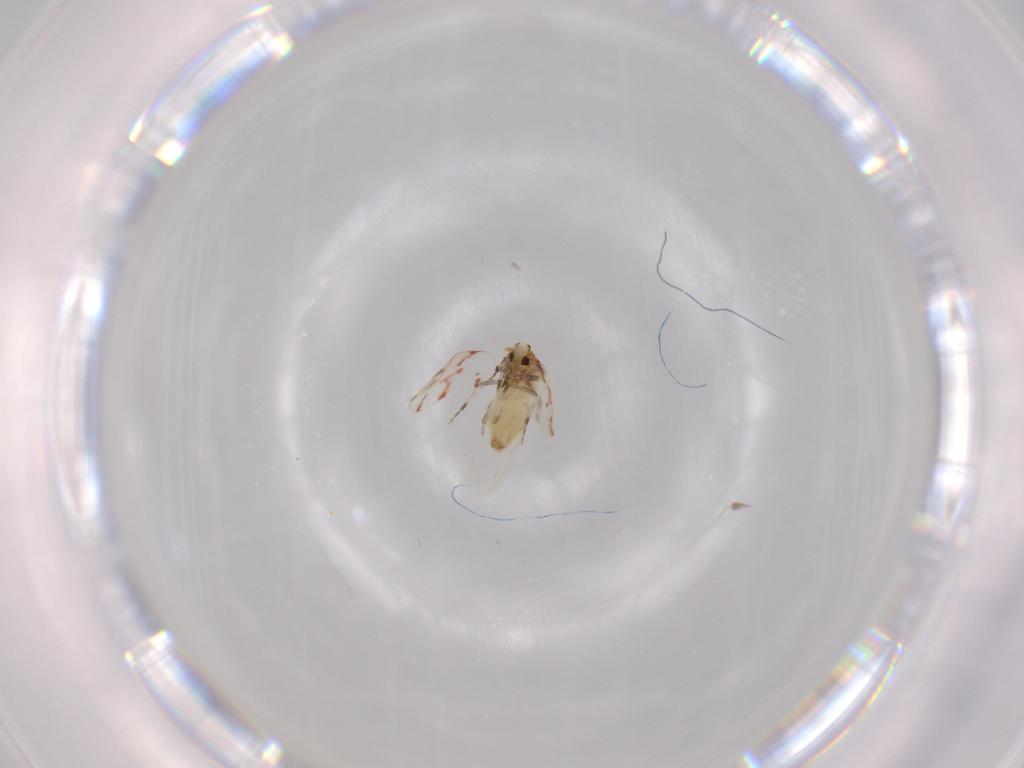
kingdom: Animalia
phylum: Arthropoda
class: Insecta
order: Hemiptera
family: Aleyrodidae
